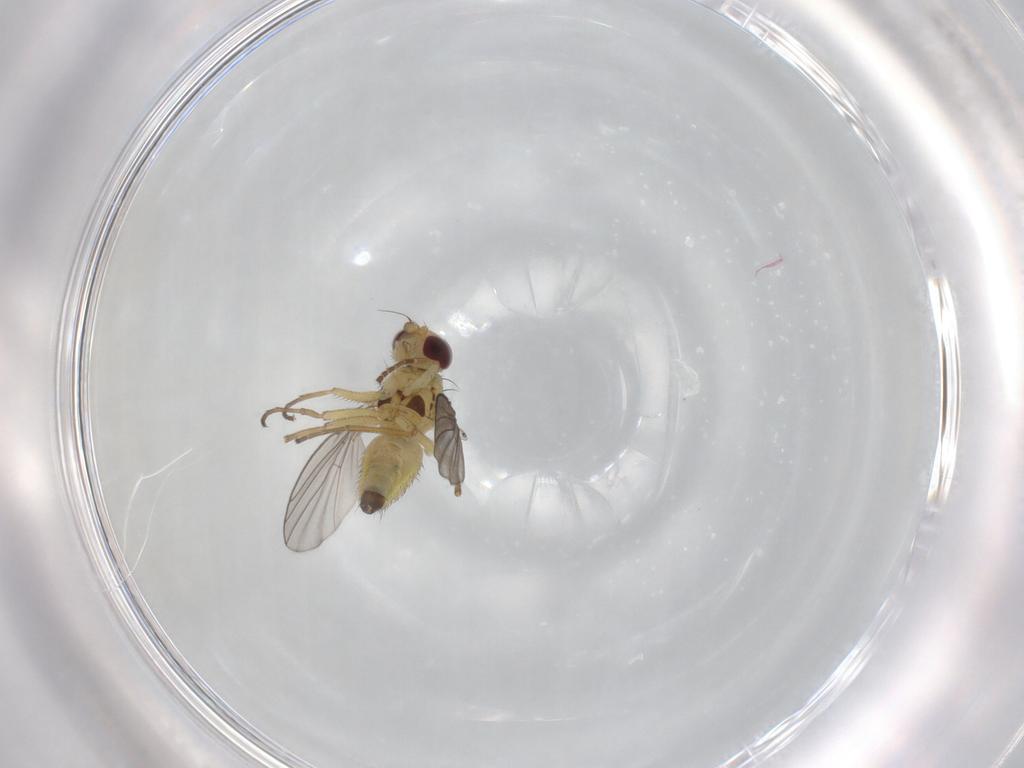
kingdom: Animalia
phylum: Arthropoda
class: Insecta
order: Diptera
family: Agromyzidae
